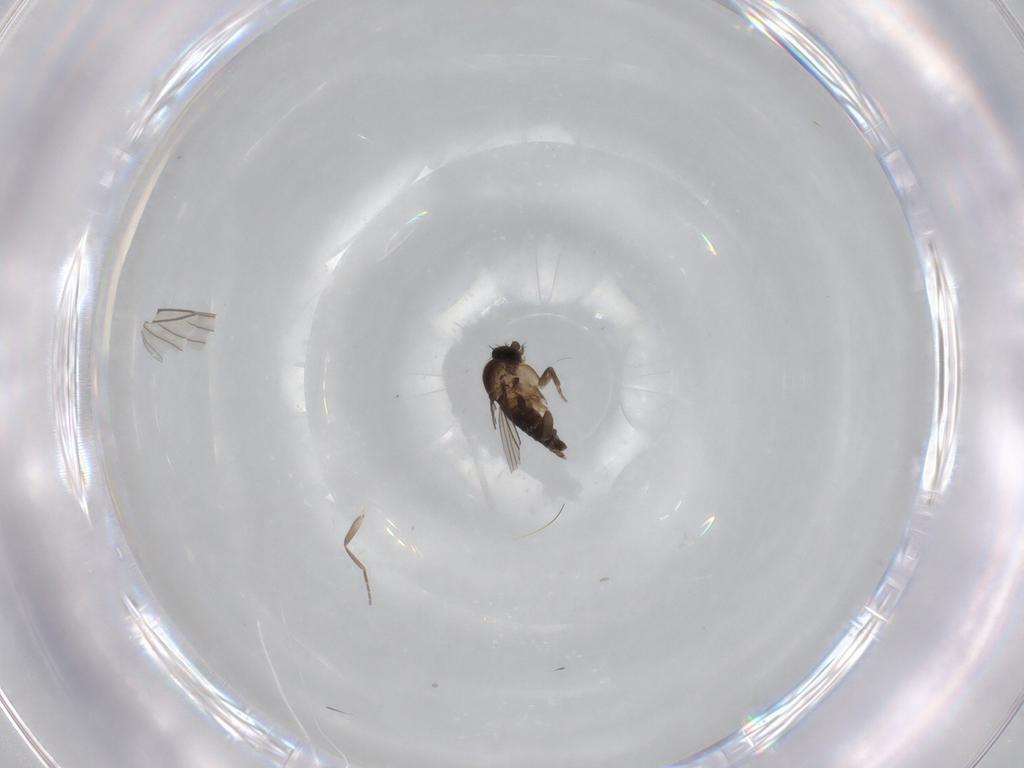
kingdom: Animalia
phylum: Arthropoda
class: Insecta
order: Diptera
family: Phoridae
